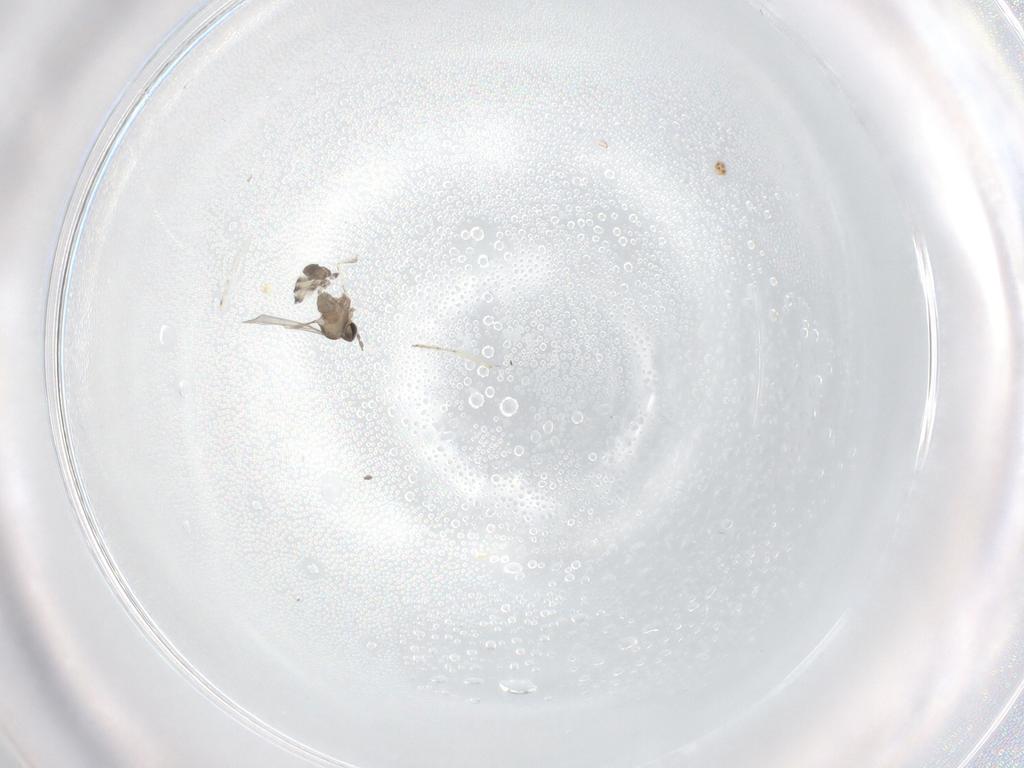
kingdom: Animalia
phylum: Arthropoda
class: Insecta
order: Diptera
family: Ceratopogonidae
